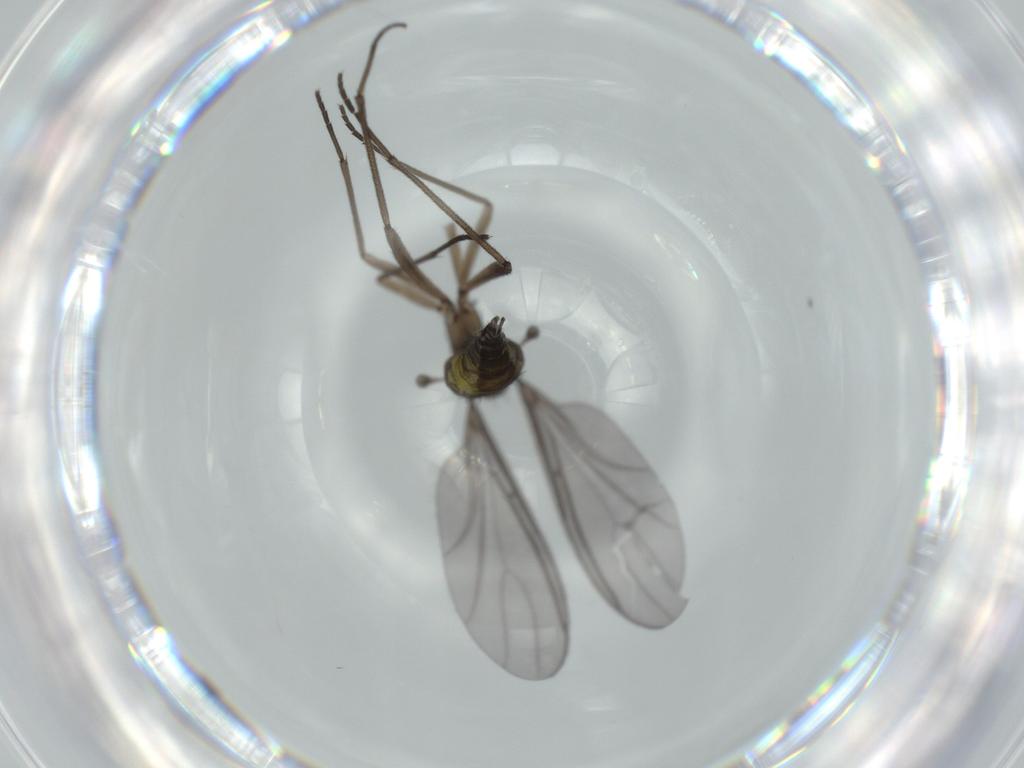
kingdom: Animalia
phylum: Arthropoda
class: Insecta
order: Diptera
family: Sciaridae
